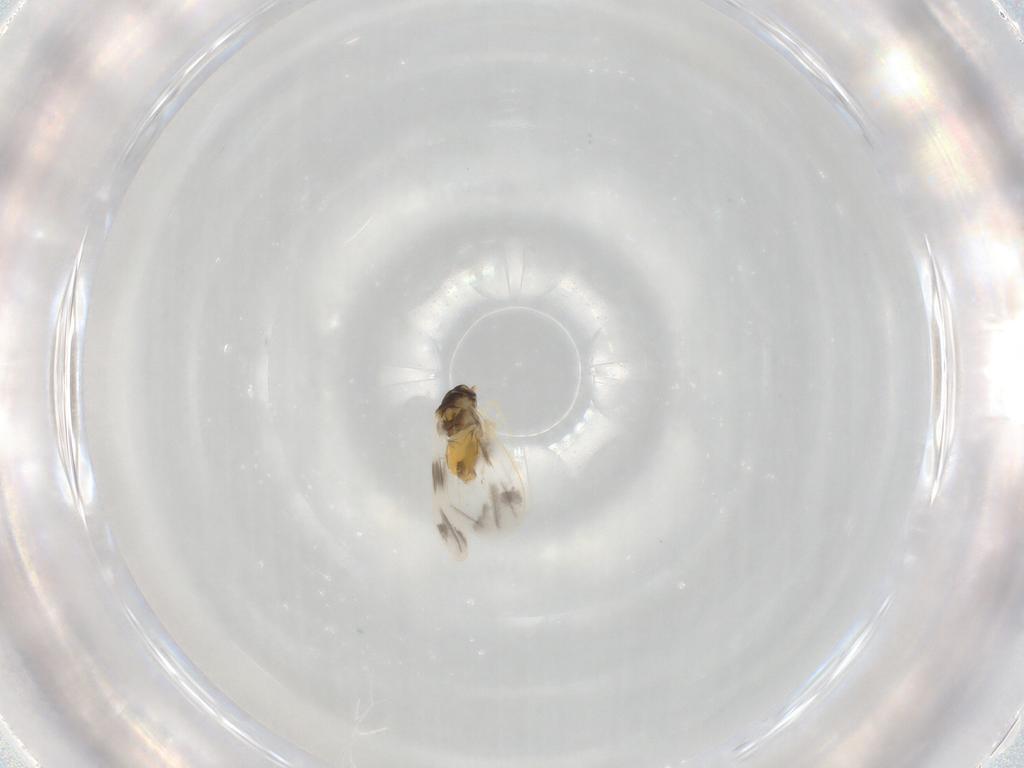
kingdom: Animalia
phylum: Arthropoda
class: Insecta
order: Hemiptera
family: Aleyrodidae
